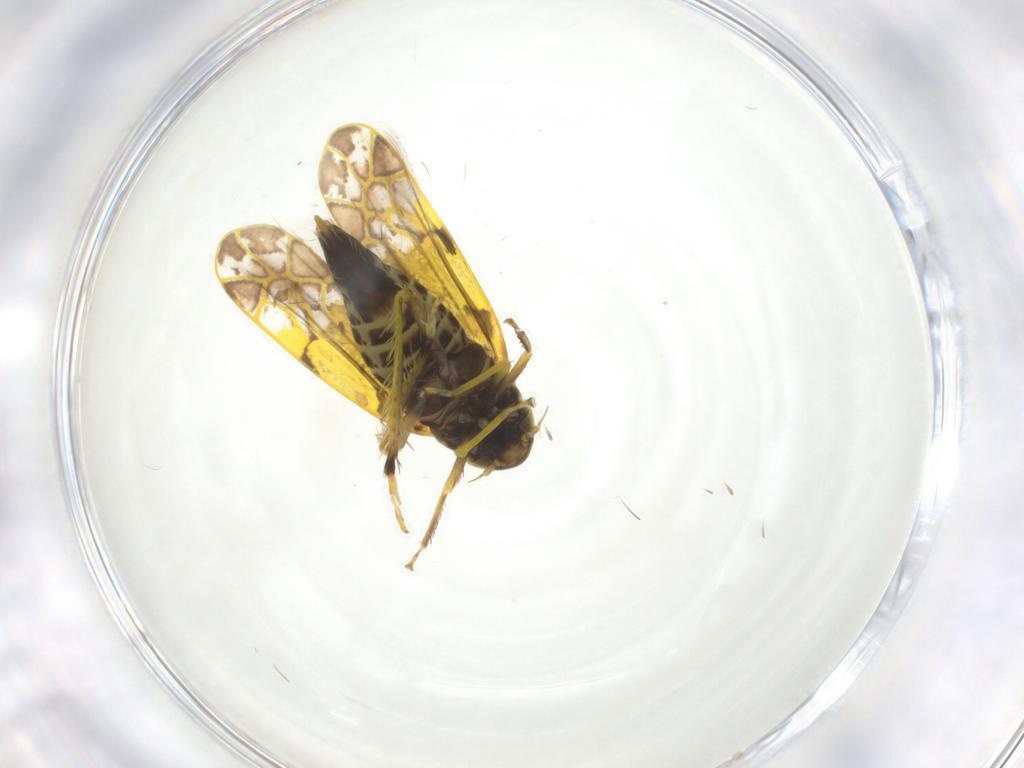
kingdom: Animalia
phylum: Arthropoda
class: Insecta
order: Hemiptera
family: Cicadellidae
